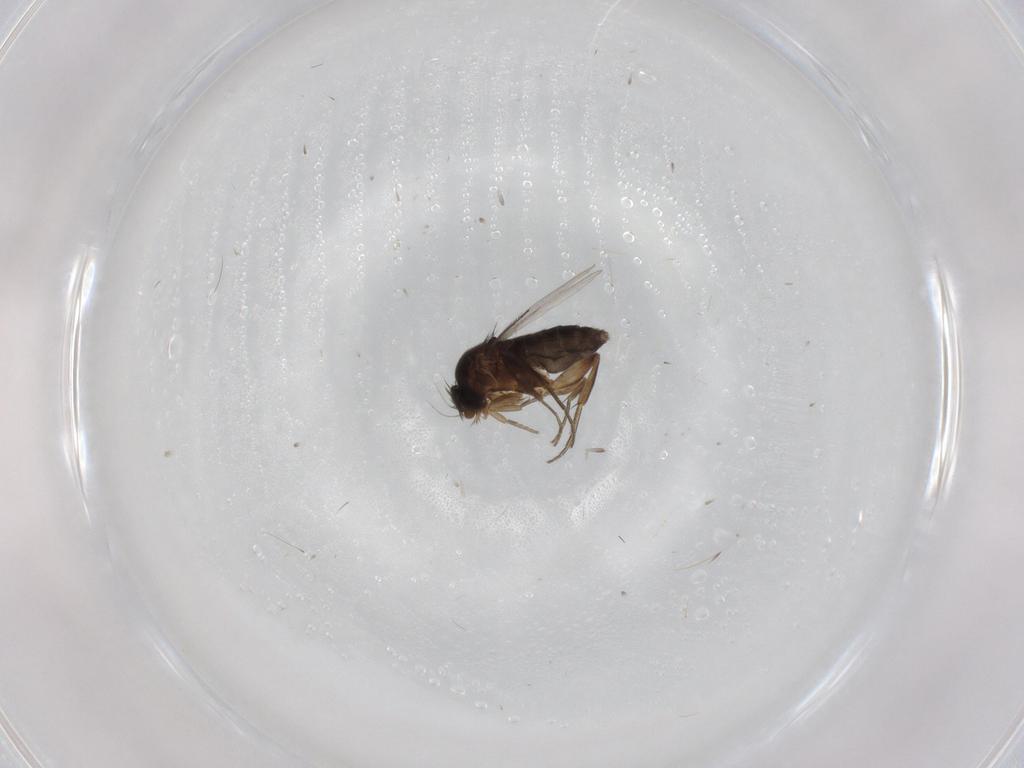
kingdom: Animalia
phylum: Arthropoda
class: Insecta
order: Diptera
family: Phoridae
